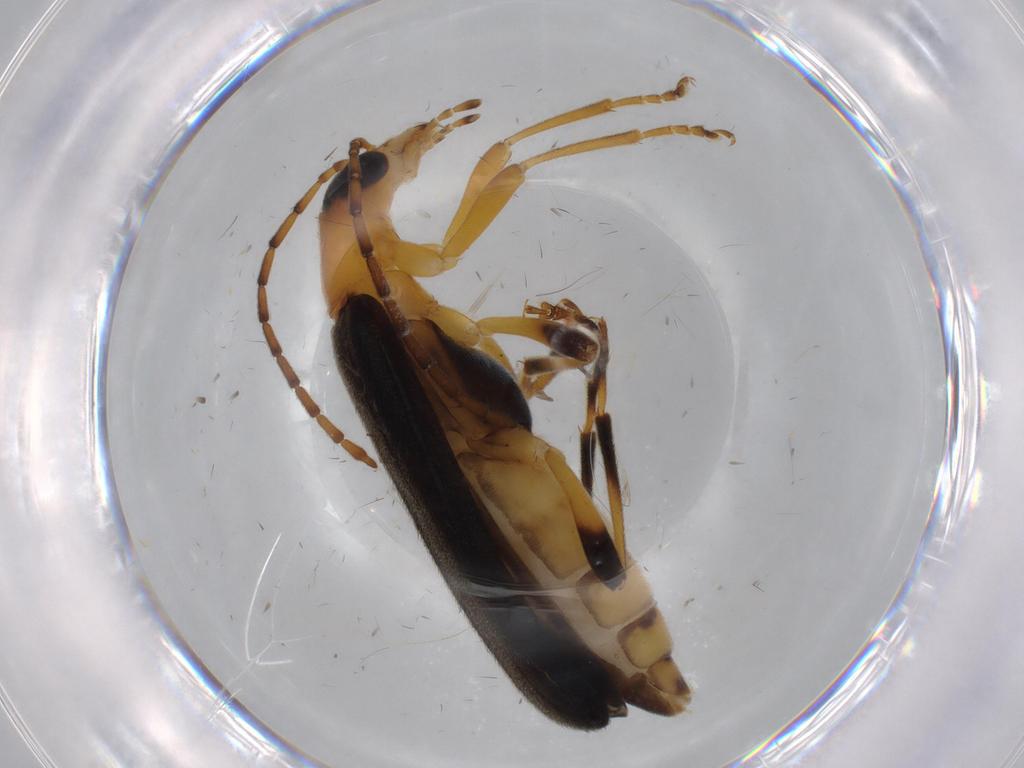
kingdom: Animalia
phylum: Arthropoda
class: Insecta
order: Coleoptera
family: Oedemeridae
